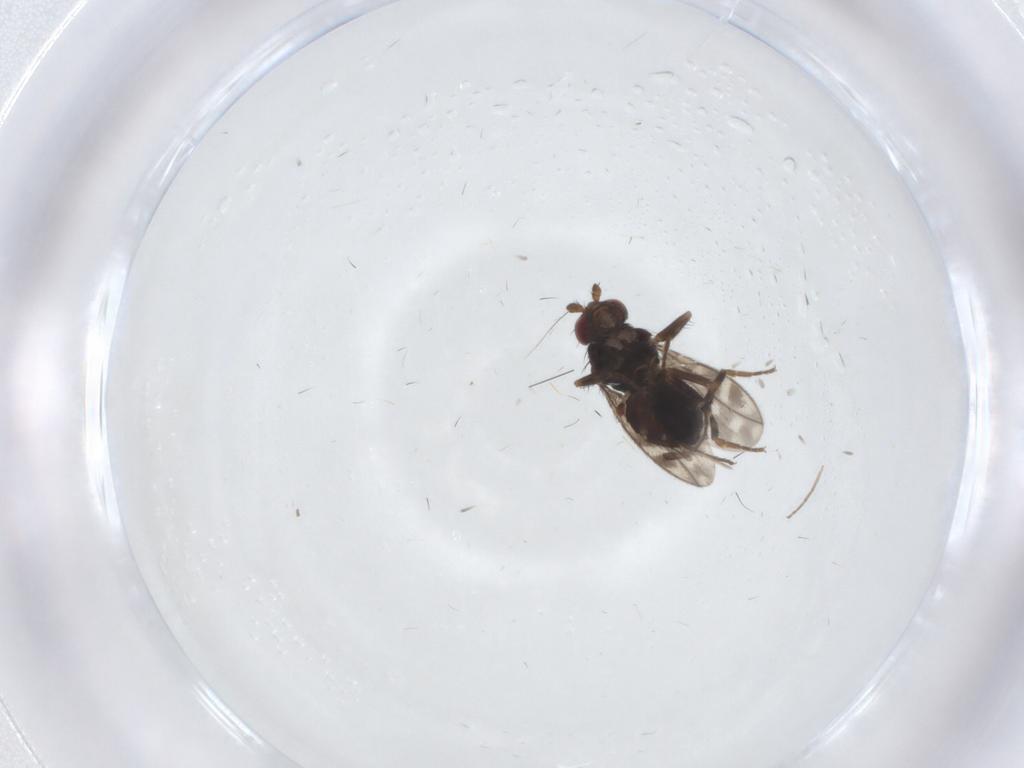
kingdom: Animalia
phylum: Arthropoda
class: Insecta
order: Diptera
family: Sphaeroceridae
